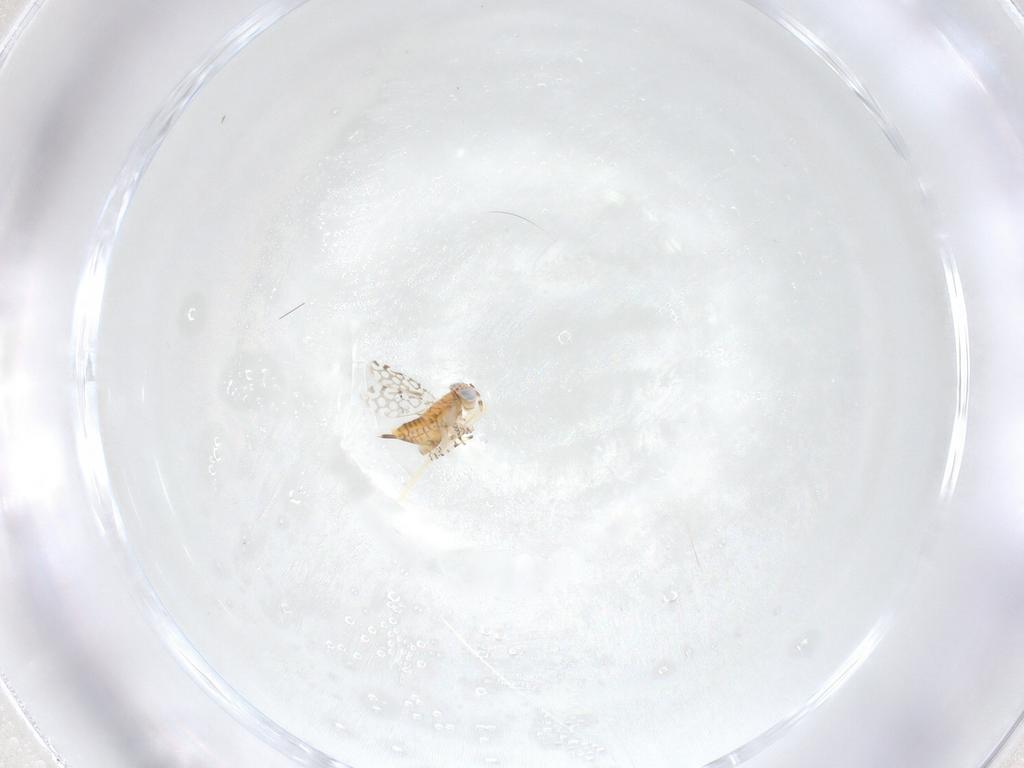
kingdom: Animalia
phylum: Arthropoda
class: Insecta
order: Hymenoptera
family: Aphelinidae
